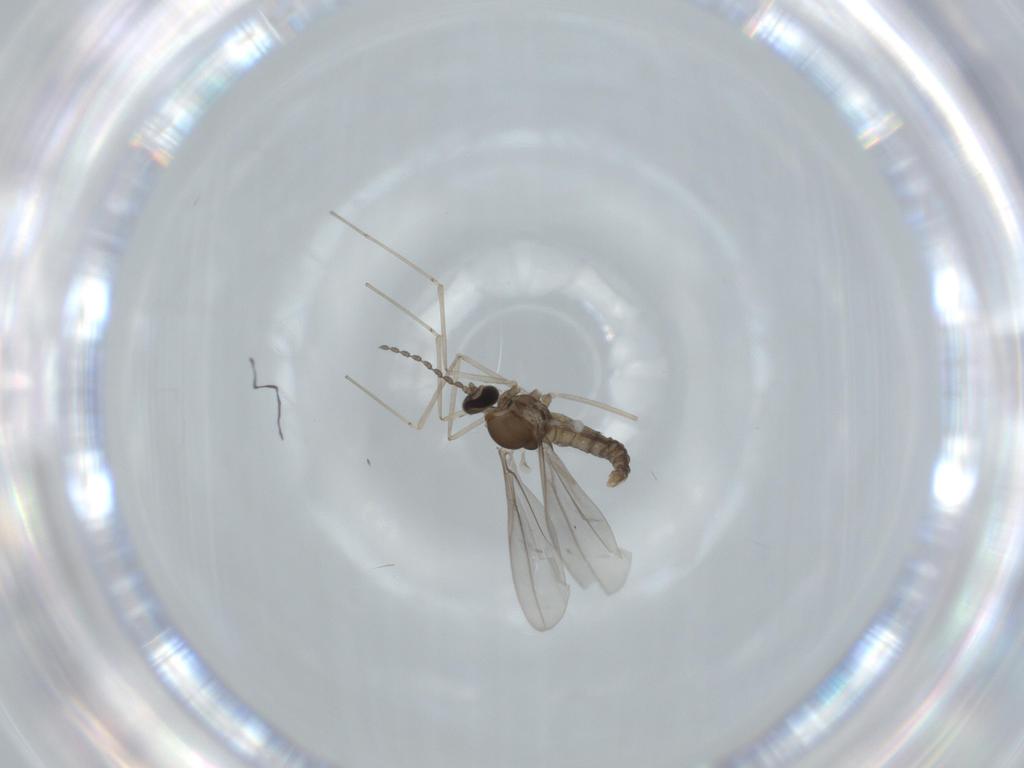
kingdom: Animalia
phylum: Arthropoda
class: Insecta
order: Diptera
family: Cecidomyiidae
